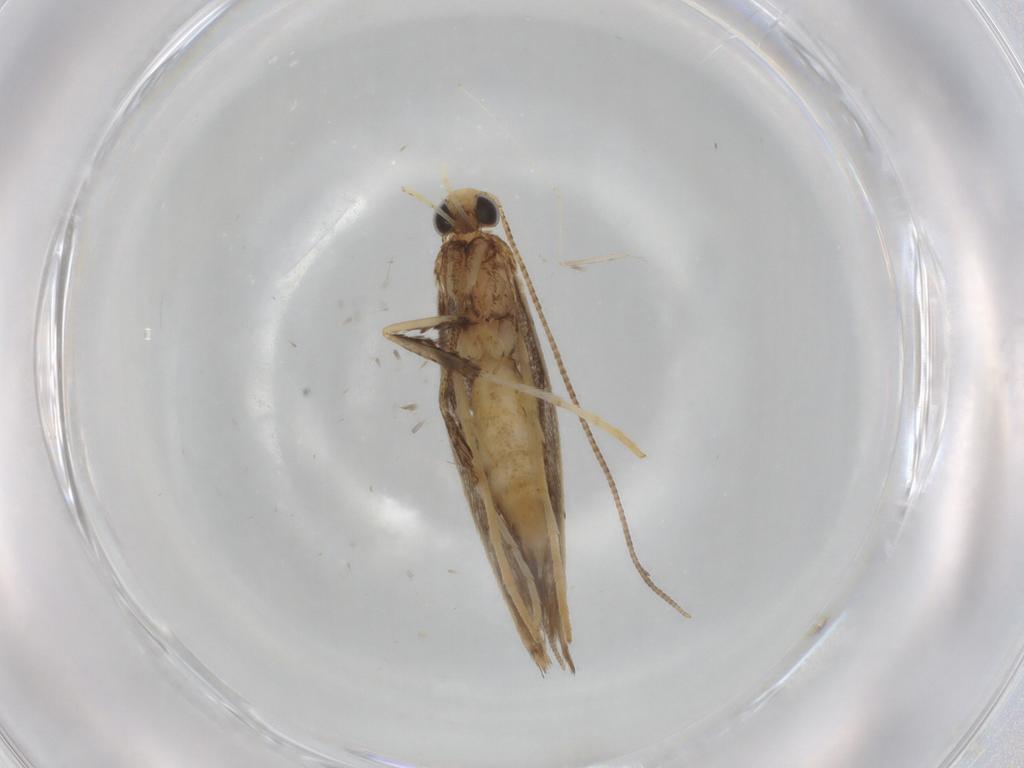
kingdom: Animalia
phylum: Arthropoda
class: Insecta
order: Lepidoptera
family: Gracillariidae
